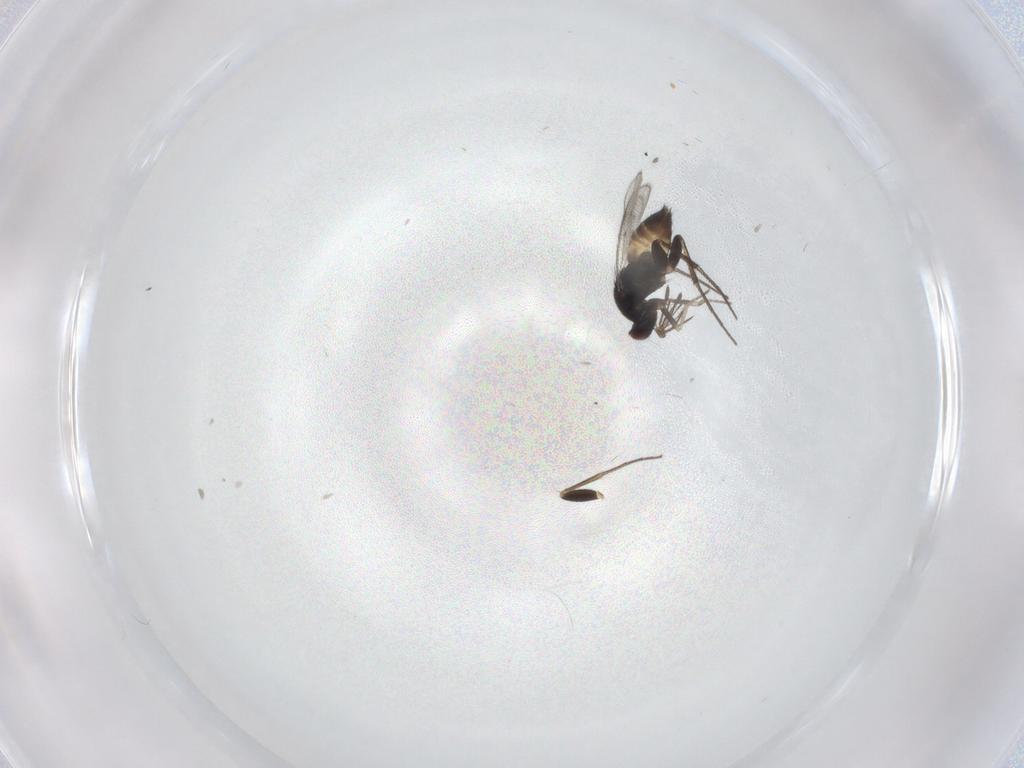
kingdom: Animalia
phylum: Arthropoda
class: Insecta
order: Hymenoptera
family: Eulophidae
